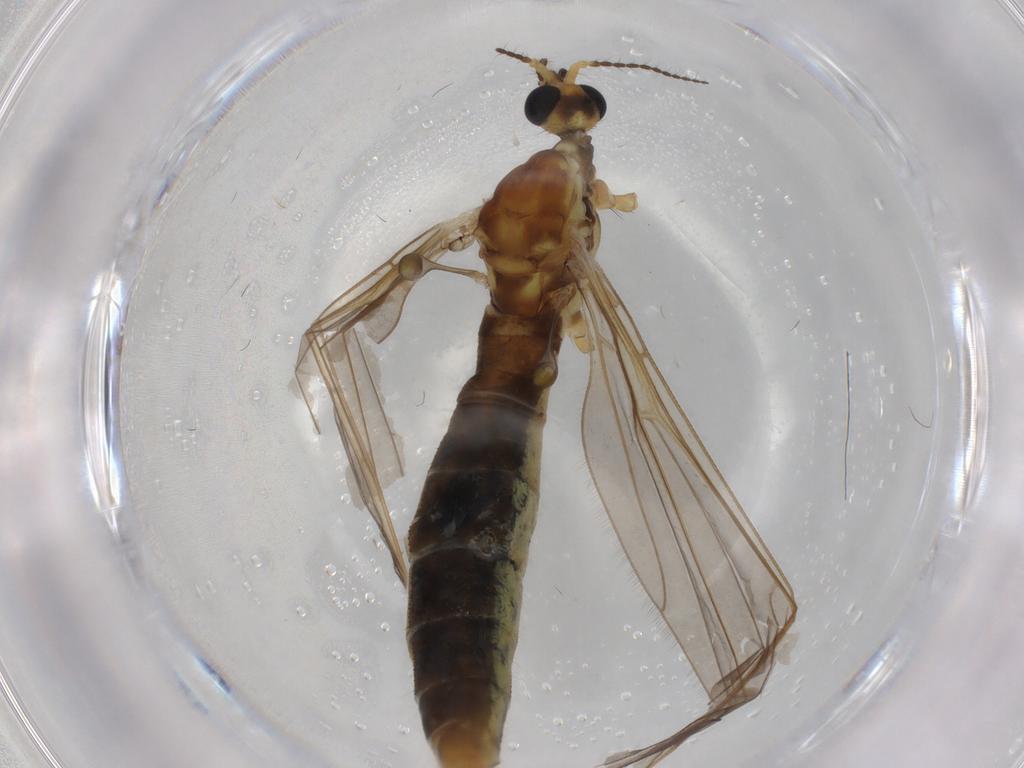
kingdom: Animalia
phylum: Arthropoda
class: Insecta
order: Diptera
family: Cecidomyiidae
